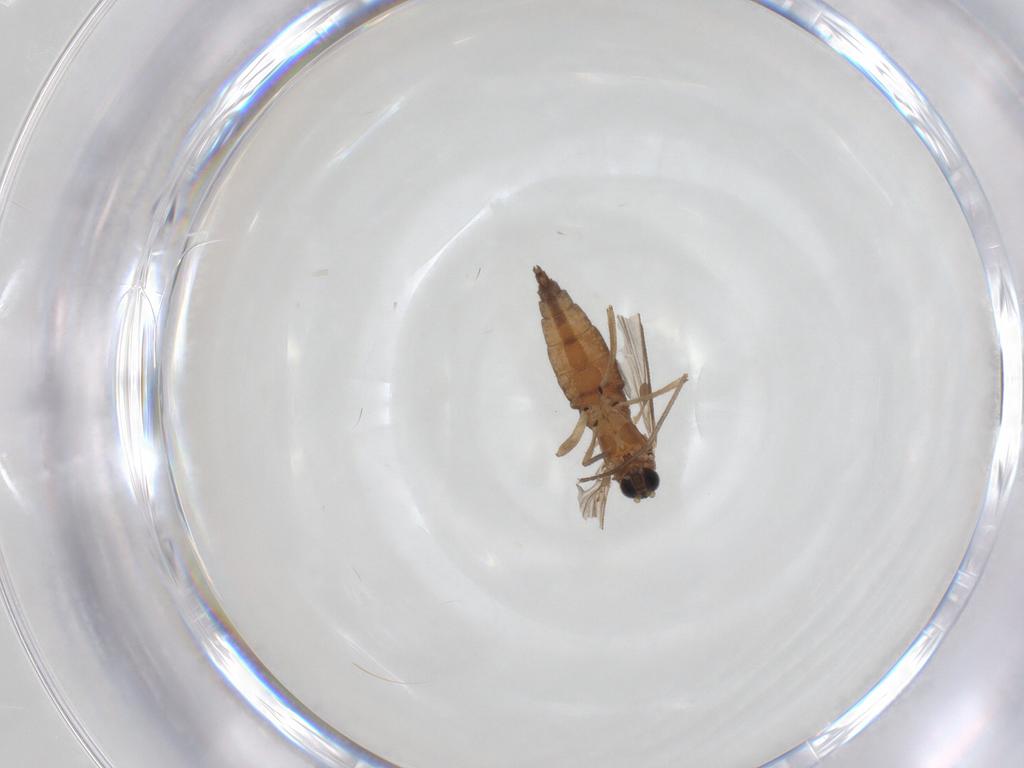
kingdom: Animalia
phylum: Arthropoda
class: Insecta
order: Diptera
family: Sciaridae
